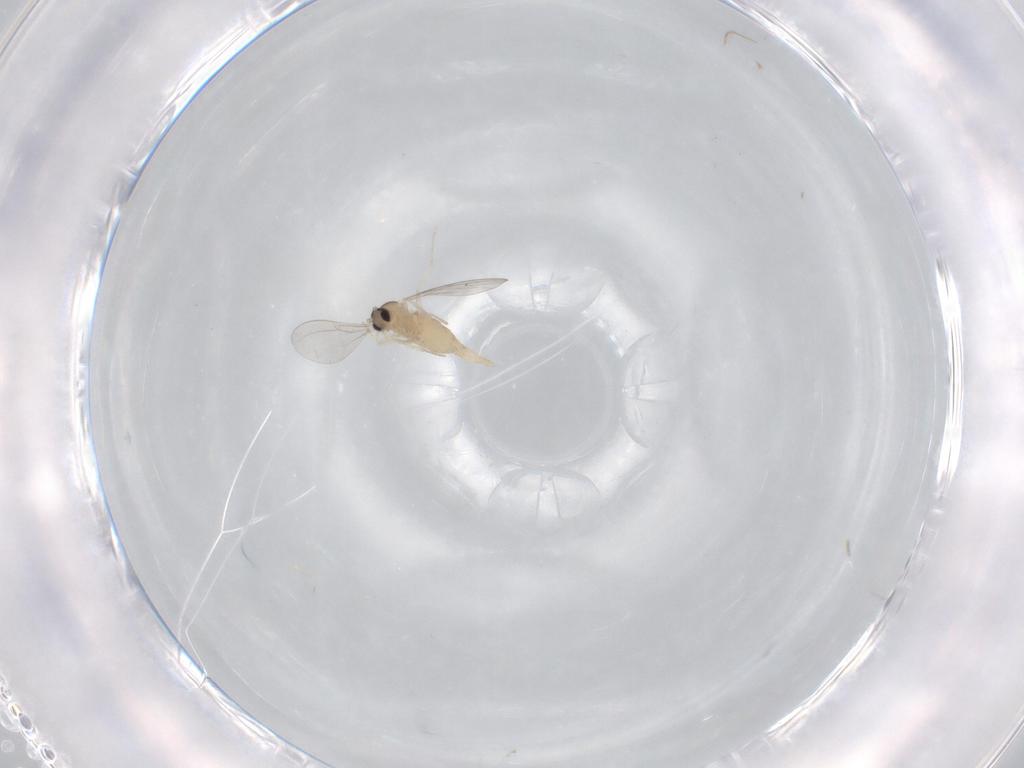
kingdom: Animalia
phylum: Arthropoda
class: Insecta
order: Diptera
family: Cecidomyiidae
